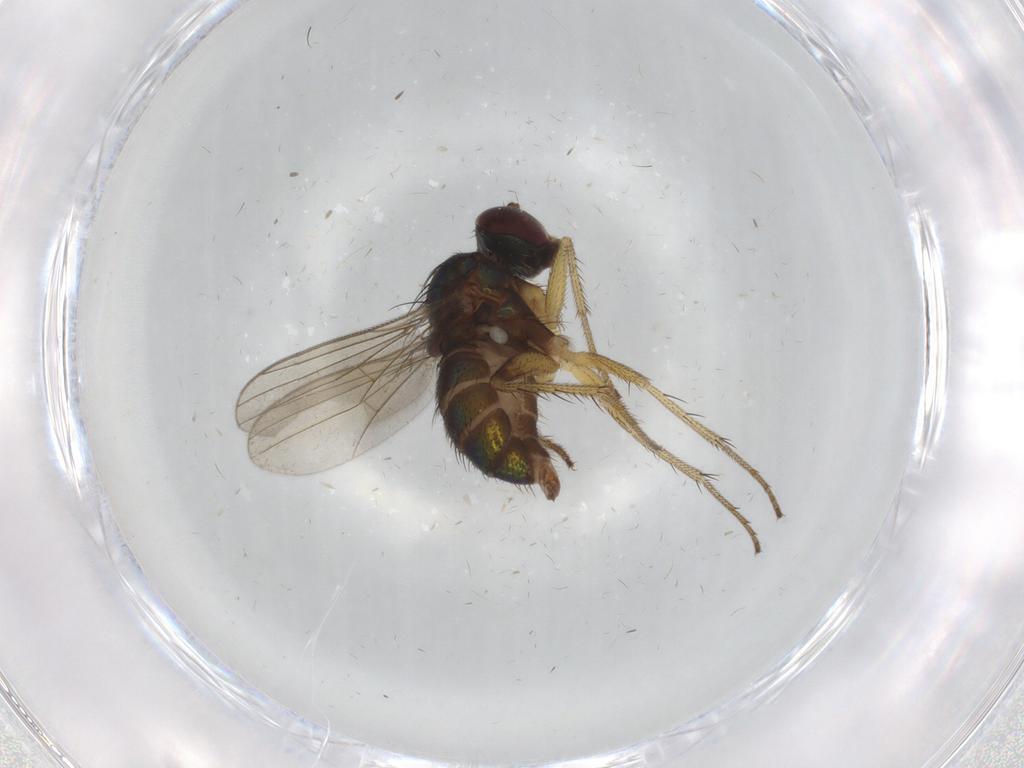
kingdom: Animalia
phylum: Arthropoda
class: Insecta
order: Diptera
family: Dolichopodidae
